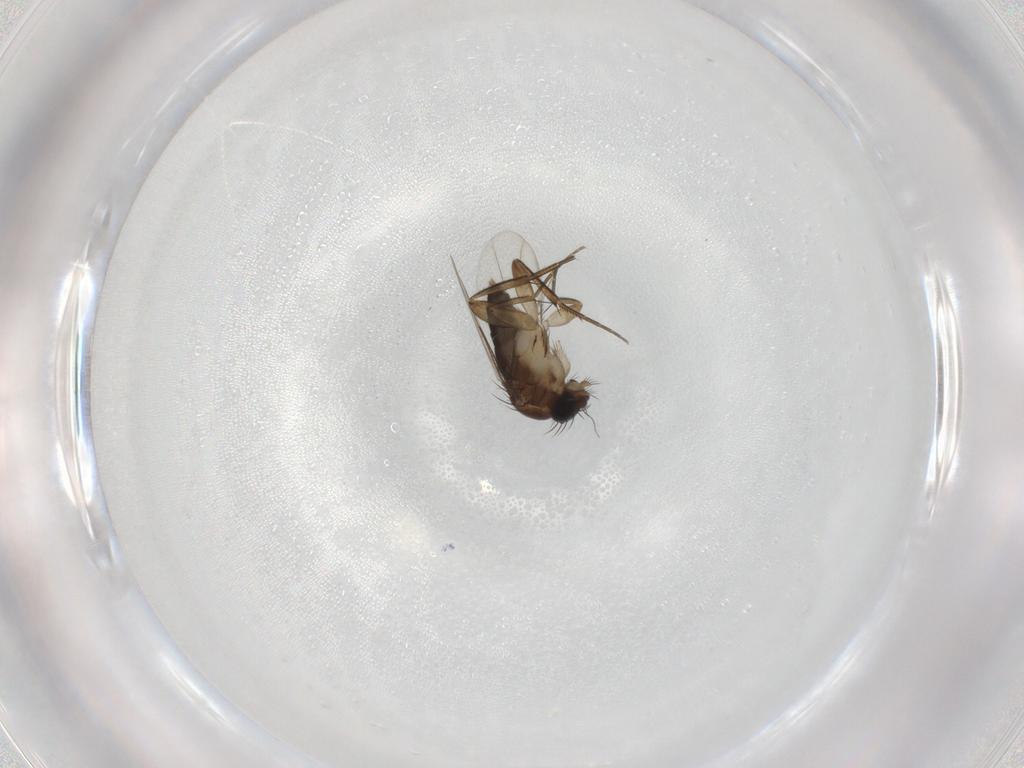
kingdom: Animalia
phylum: Arthropoda
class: Insecta
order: Diptera
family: Phoridae
